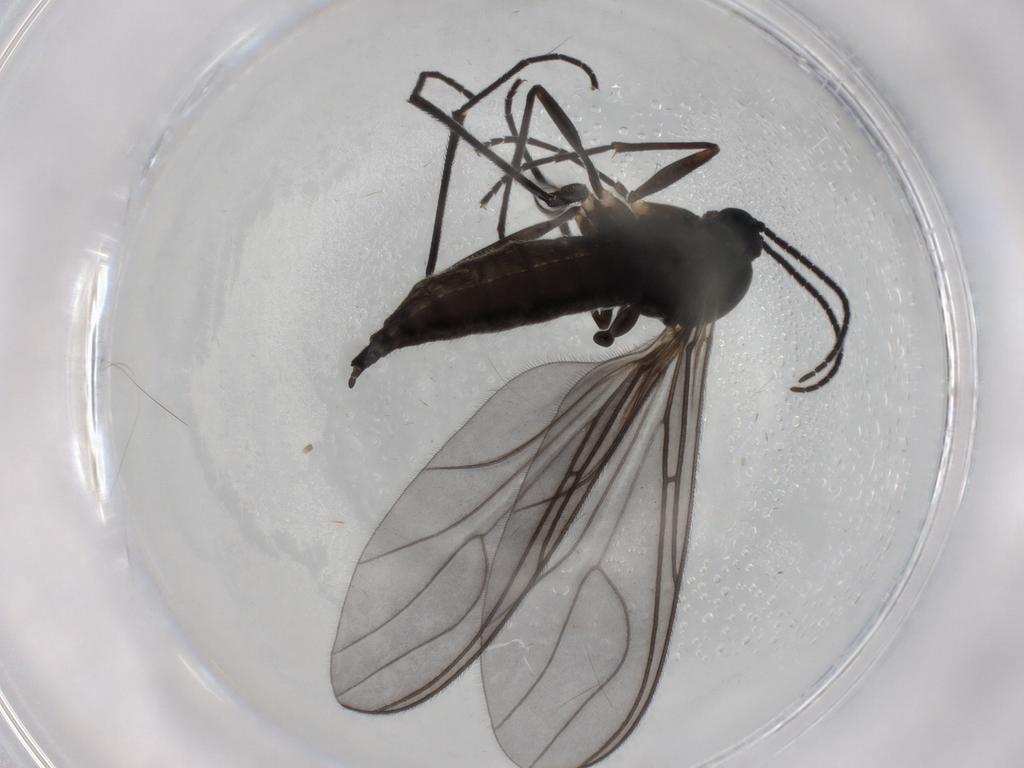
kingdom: Animalia
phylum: Arthropoda
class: Insecta
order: Diptera
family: Sciaridae
